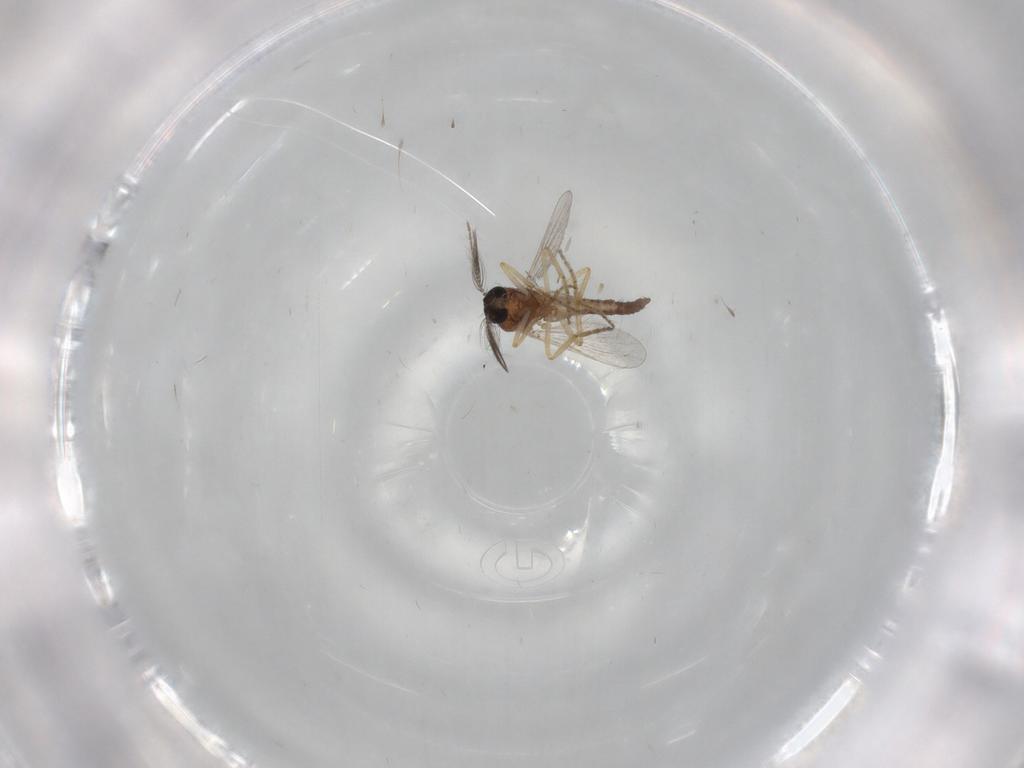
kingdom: Animalia
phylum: Arthropoda
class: Insecta
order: Diptera
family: Ceratopogonidae
